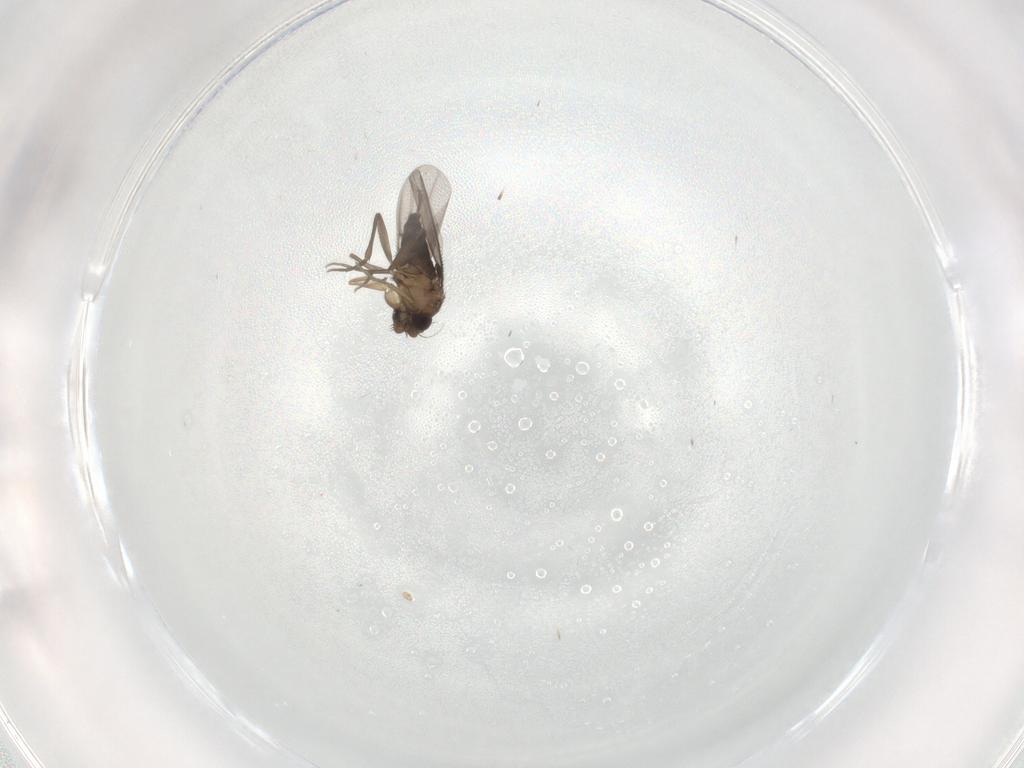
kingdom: Animalia
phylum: Arthropoda
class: Insecta
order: Diptera
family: Phoridae
